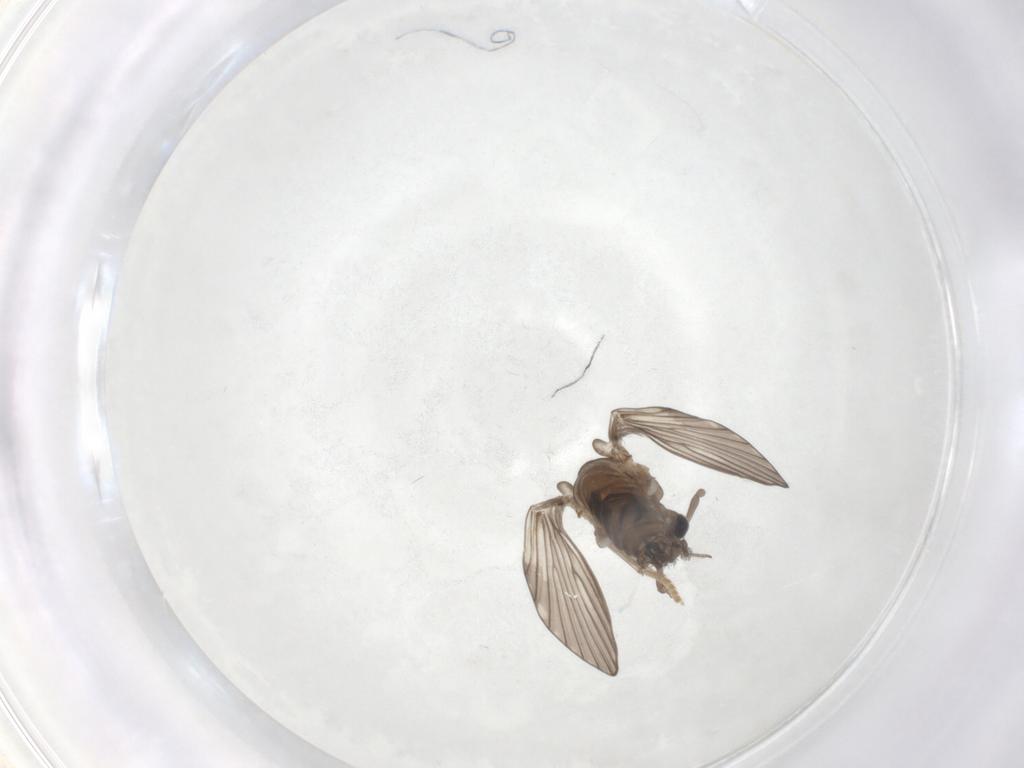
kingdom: Animalia
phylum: Arthropoda
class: Insecta
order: Diptera
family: Psychodidae
